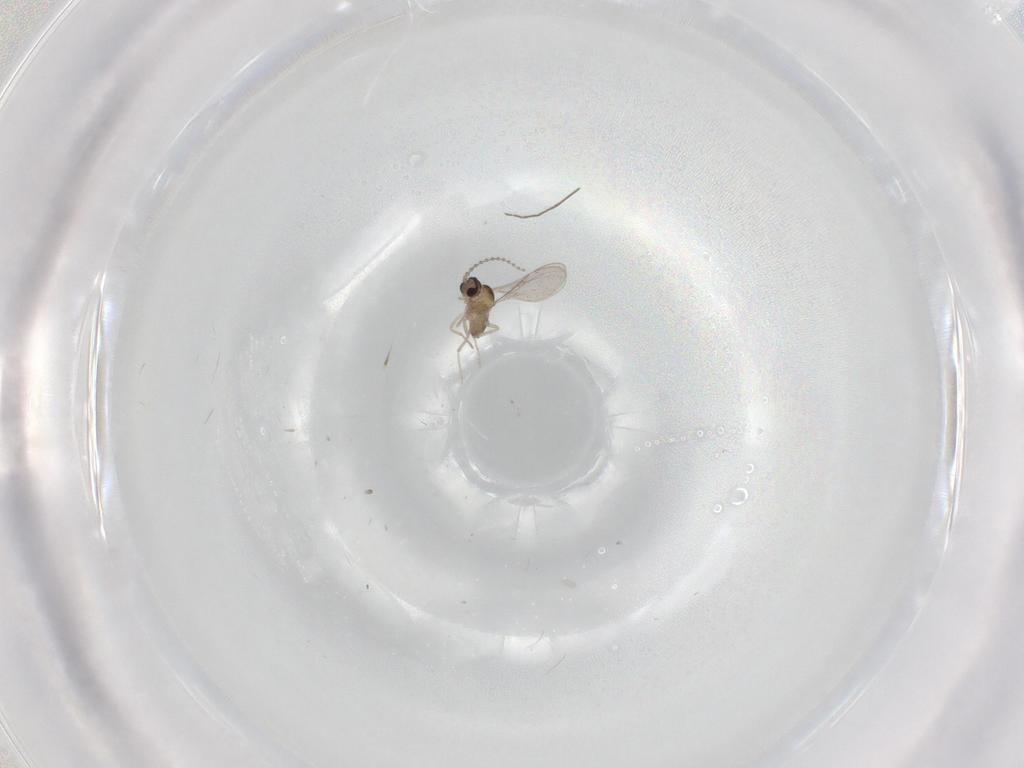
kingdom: Animalia
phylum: Arthropoda
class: Insecta
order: Diptera
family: Cecidomyiidae
